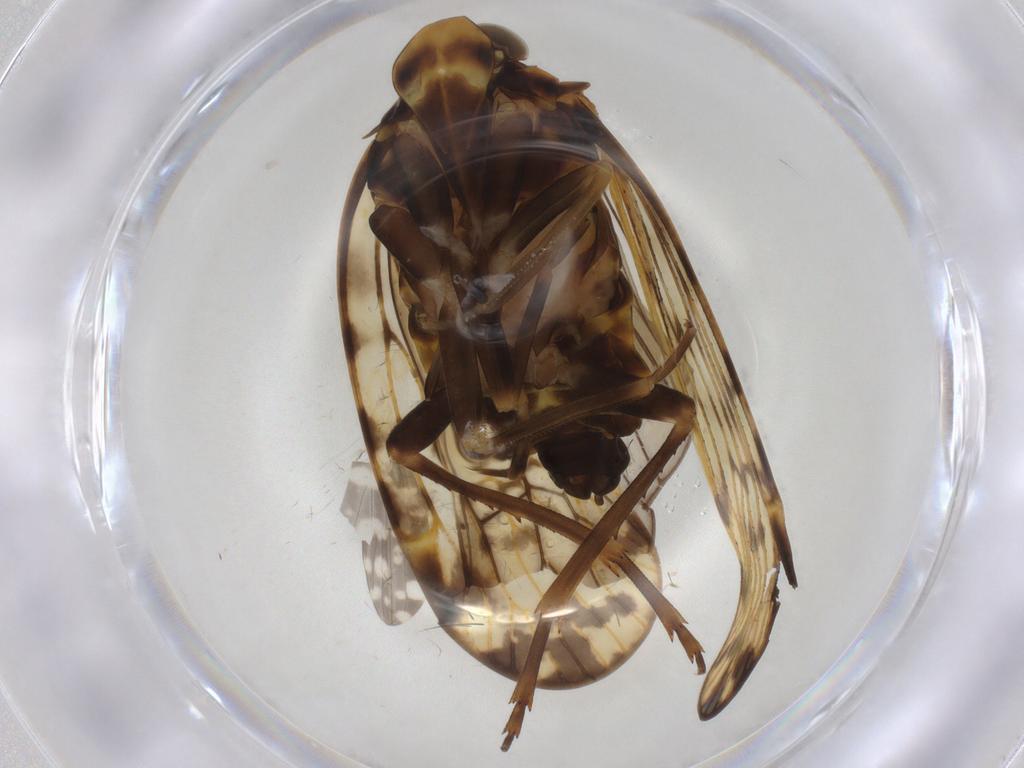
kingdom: Animalia
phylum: Arthropoda
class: Insecta
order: Hemiptera
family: Cixiidae
